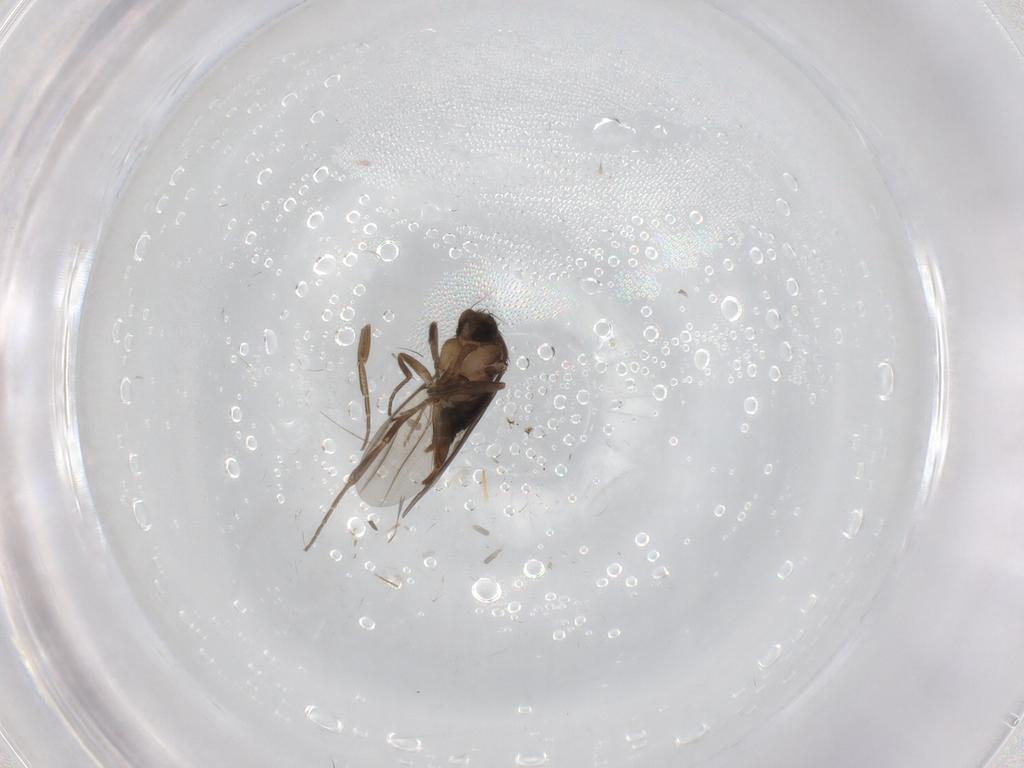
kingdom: Animalia
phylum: Arthropoda
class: Insecta
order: Diptera
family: Phoridae
